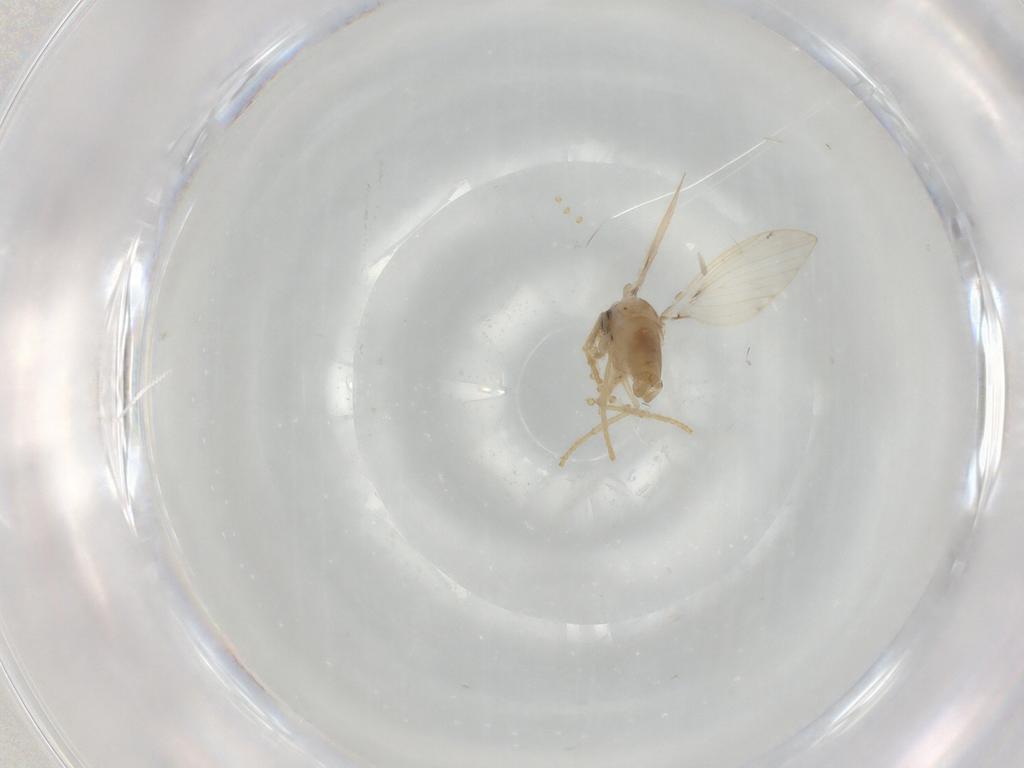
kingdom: Animalia
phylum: Arthropoda
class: Insecta
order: Diptera
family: Psychodidae
